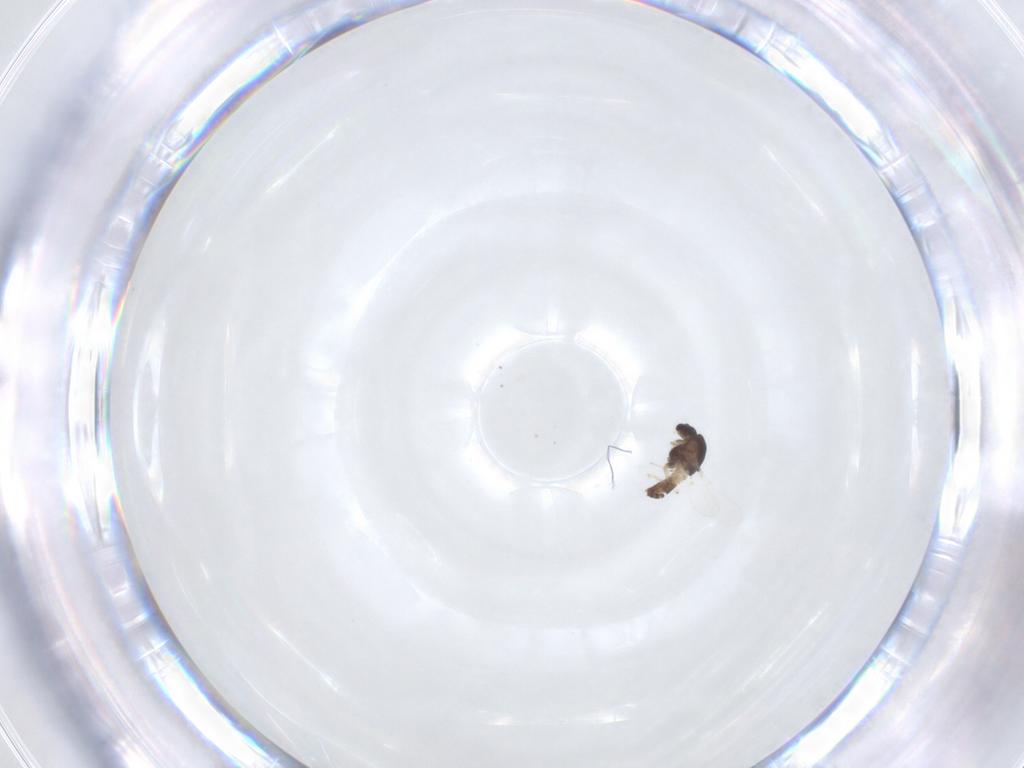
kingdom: Animalia
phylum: Arthropoda
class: Insecta
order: Diptera
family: Chironomidae
